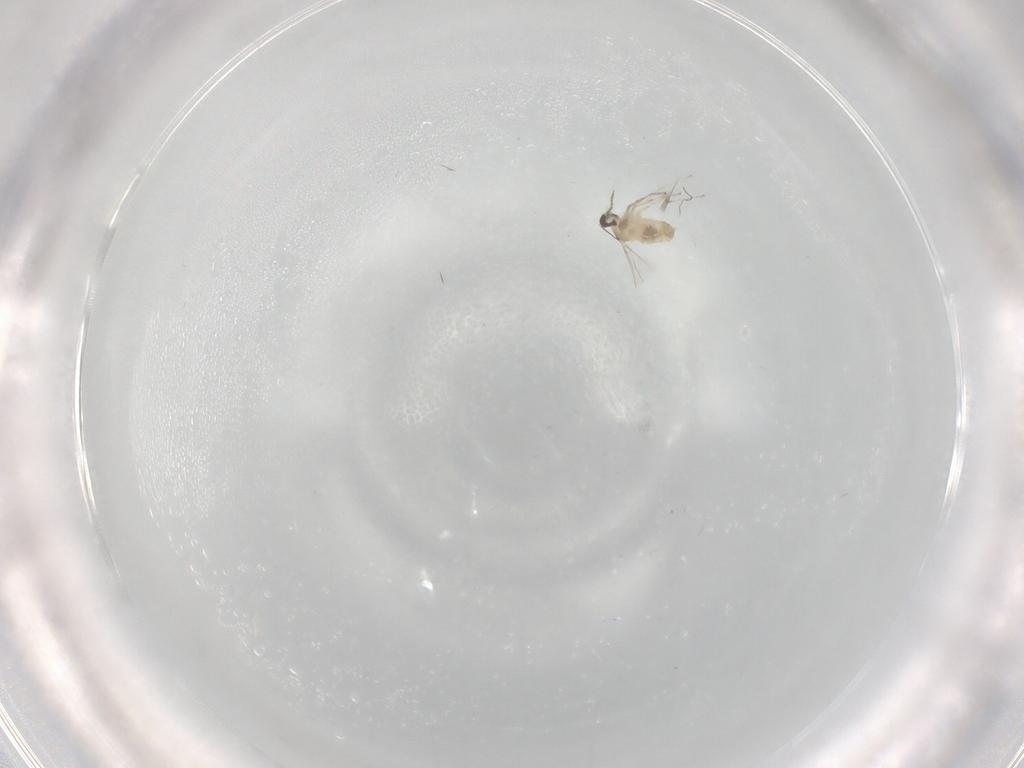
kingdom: Animalia
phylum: Arthropoda
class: Insecta
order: Diptera
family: Cecidomyiidae
